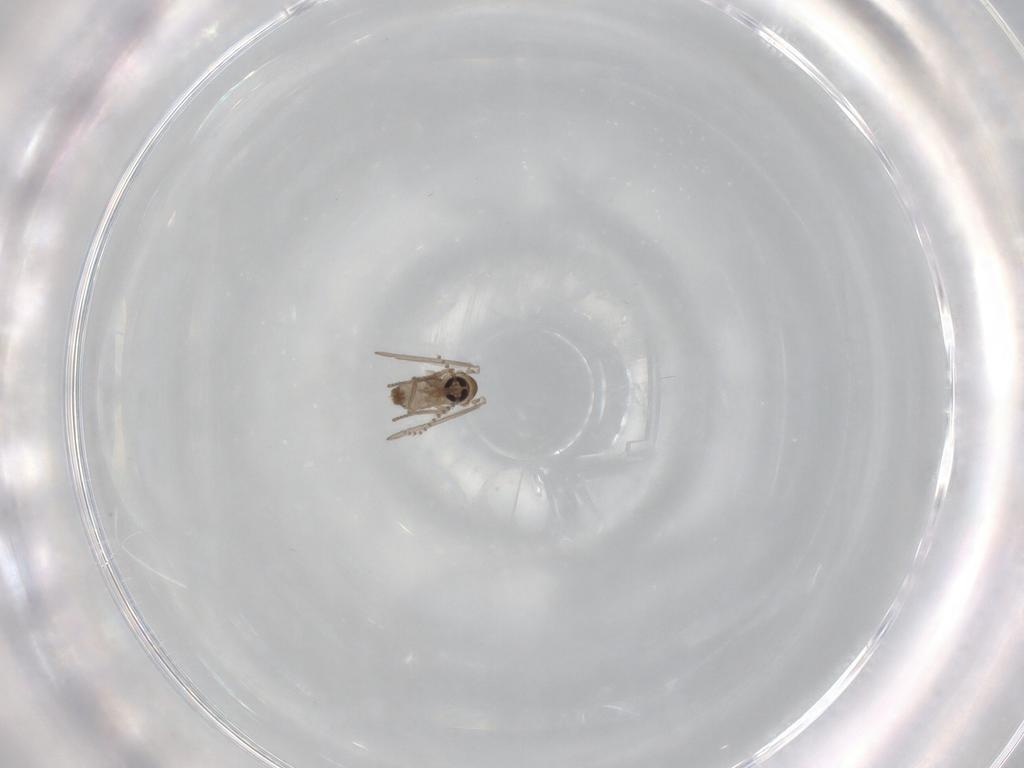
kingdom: Animalia
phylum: Arthropoda
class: Insecta
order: Diptera
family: Psychodidae
